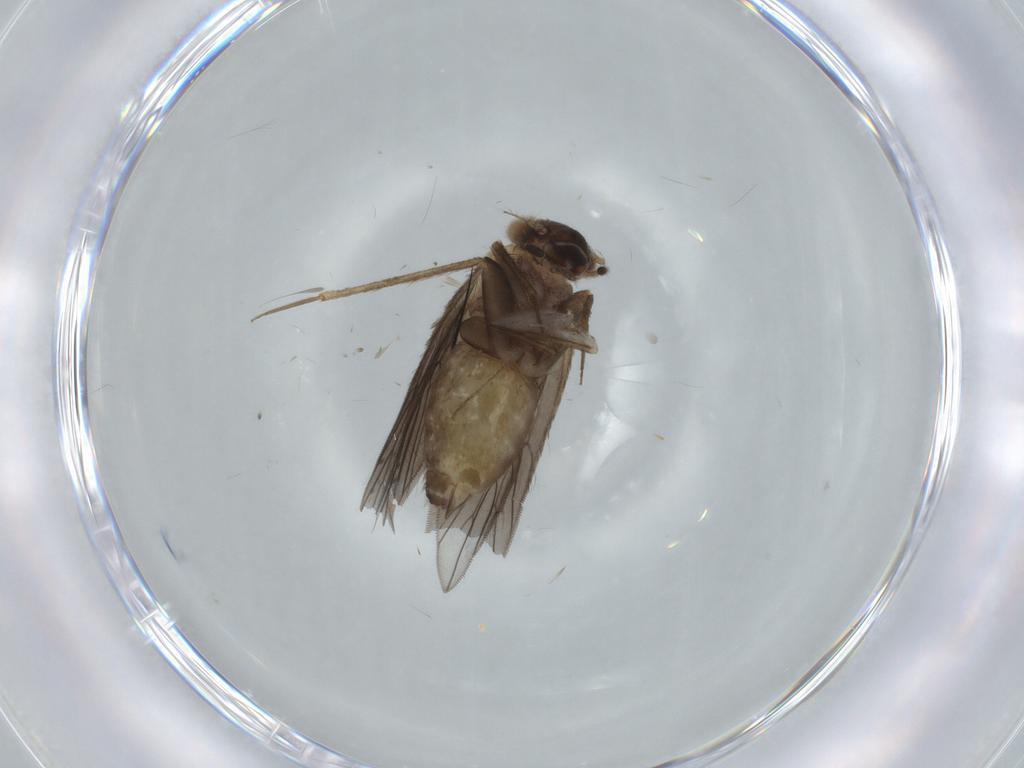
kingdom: Animalia
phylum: Arthropoda
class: Insecta
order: Psocodea
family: Lepidopsocidae
